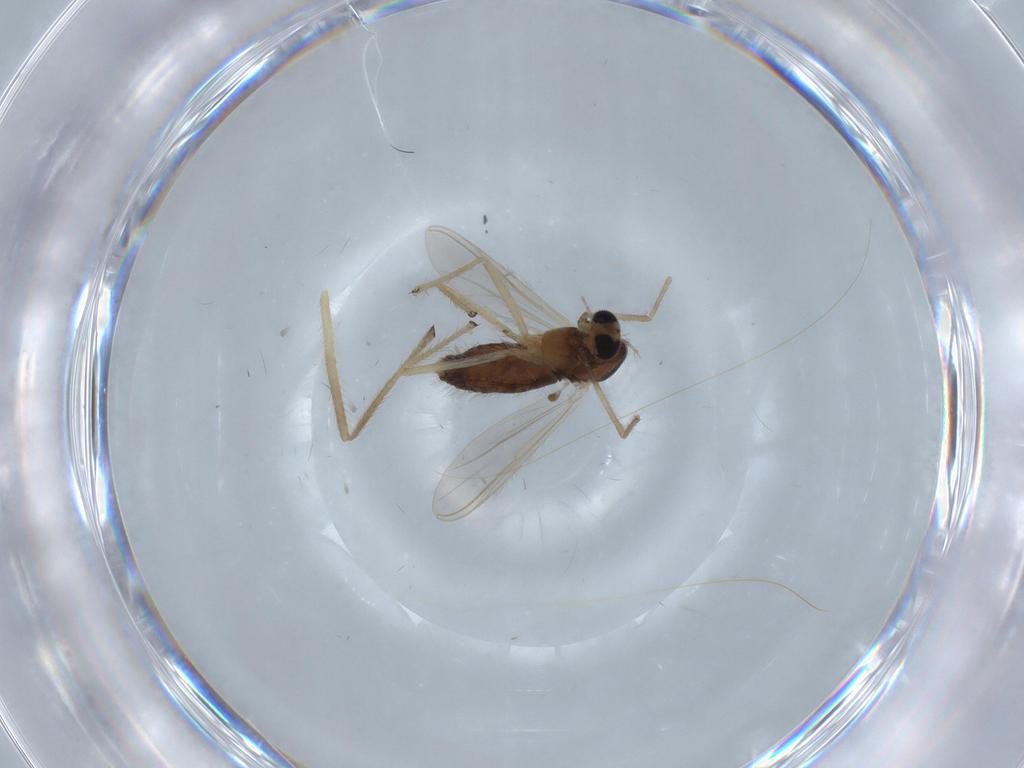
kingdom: Animalia
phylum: Arthropoda
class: Insecta
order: Diptera
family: Chironomidae
